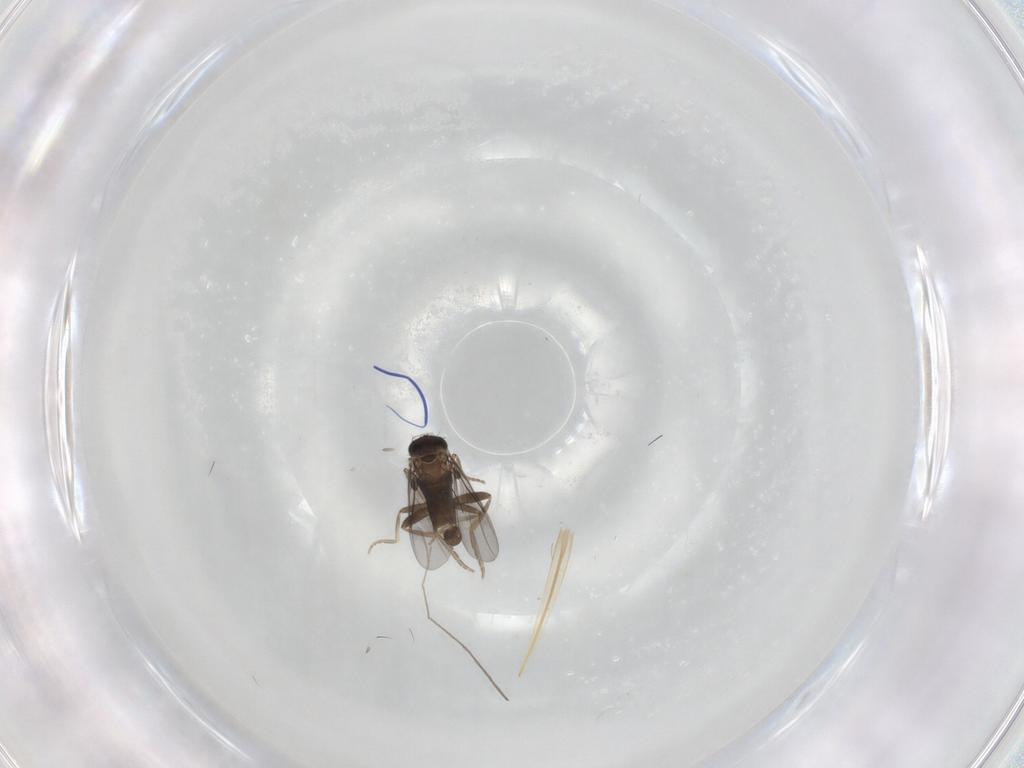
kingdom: Animalia
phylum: Arthropoda
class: Insecta
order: Diptera
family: Chironomidae
